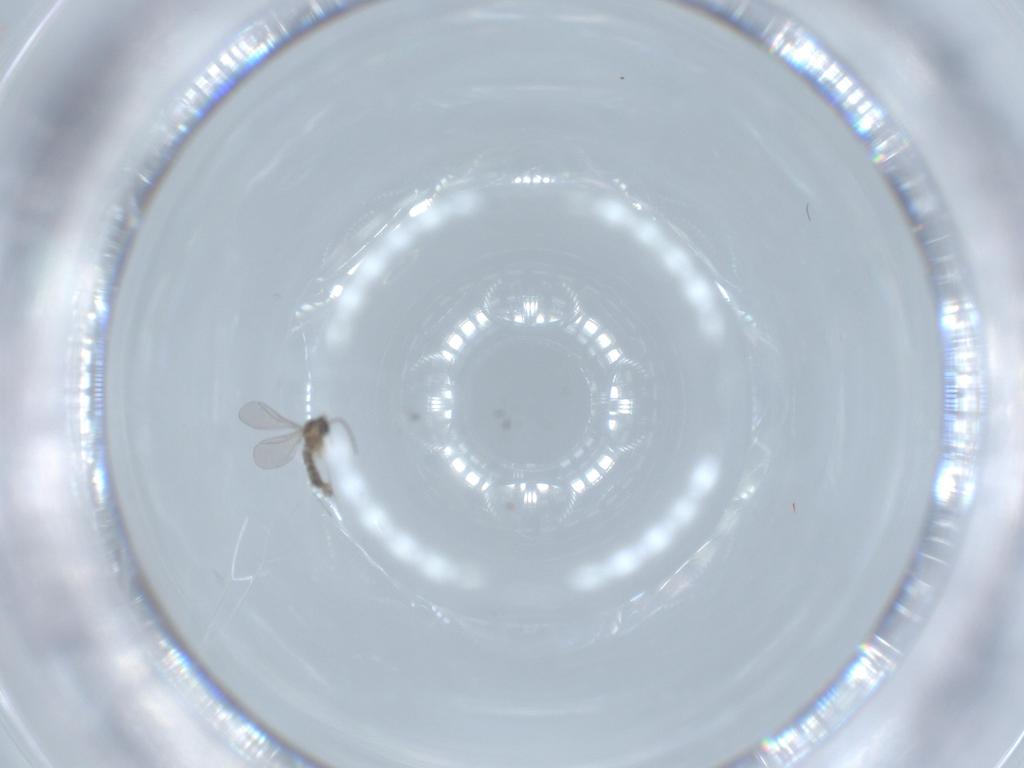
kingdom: Animalia
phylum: Arthropoda
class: Insecta
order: Diptera
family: Cecidomyiidae
